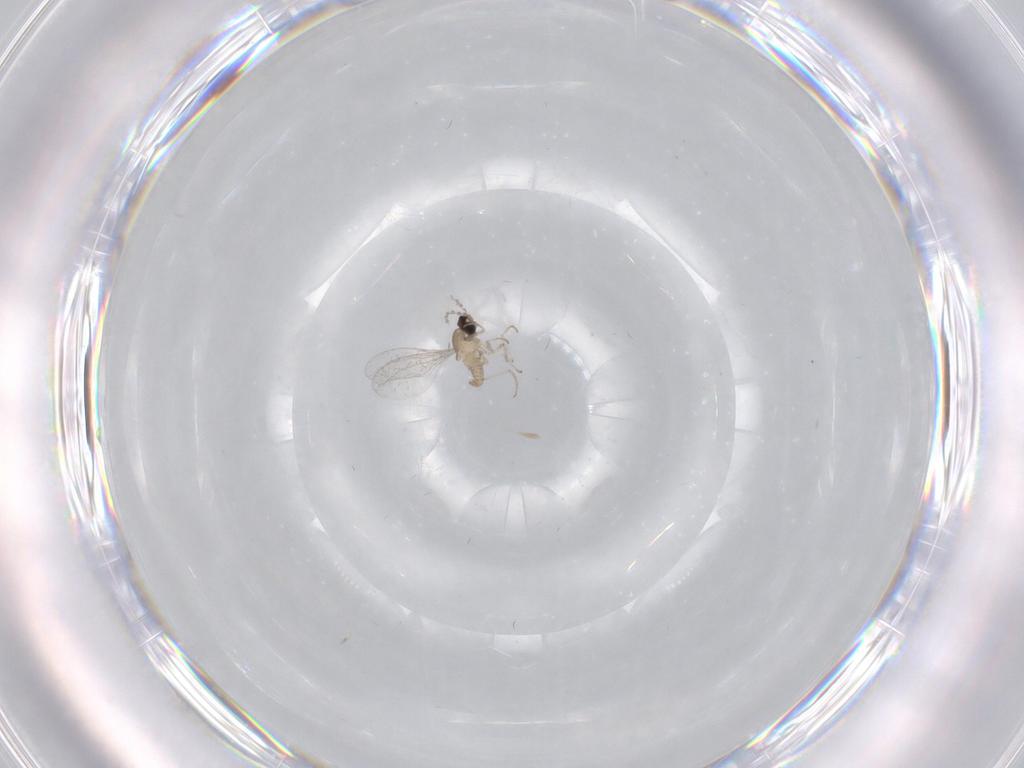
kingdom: Animalia
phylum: Arthropoda
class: Insecta
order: Diptera
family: Cecidomyiidae
